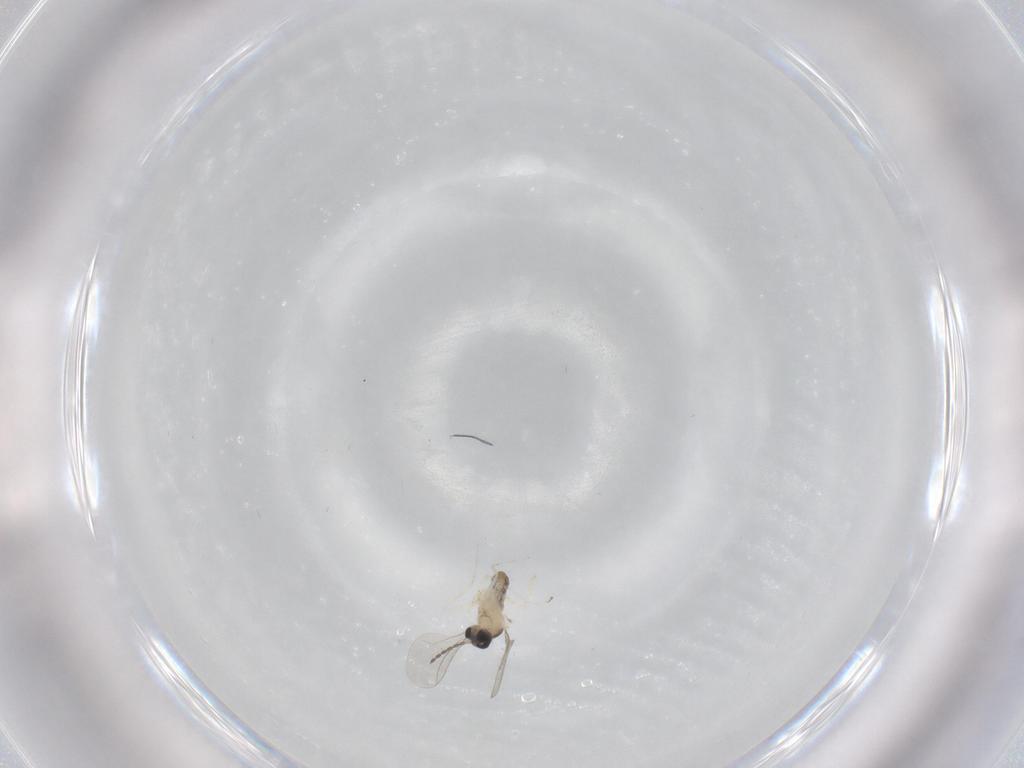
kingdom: Animalia
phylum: Arthropoda
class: Insecta
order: Diptera
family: Cecidomyiidae
